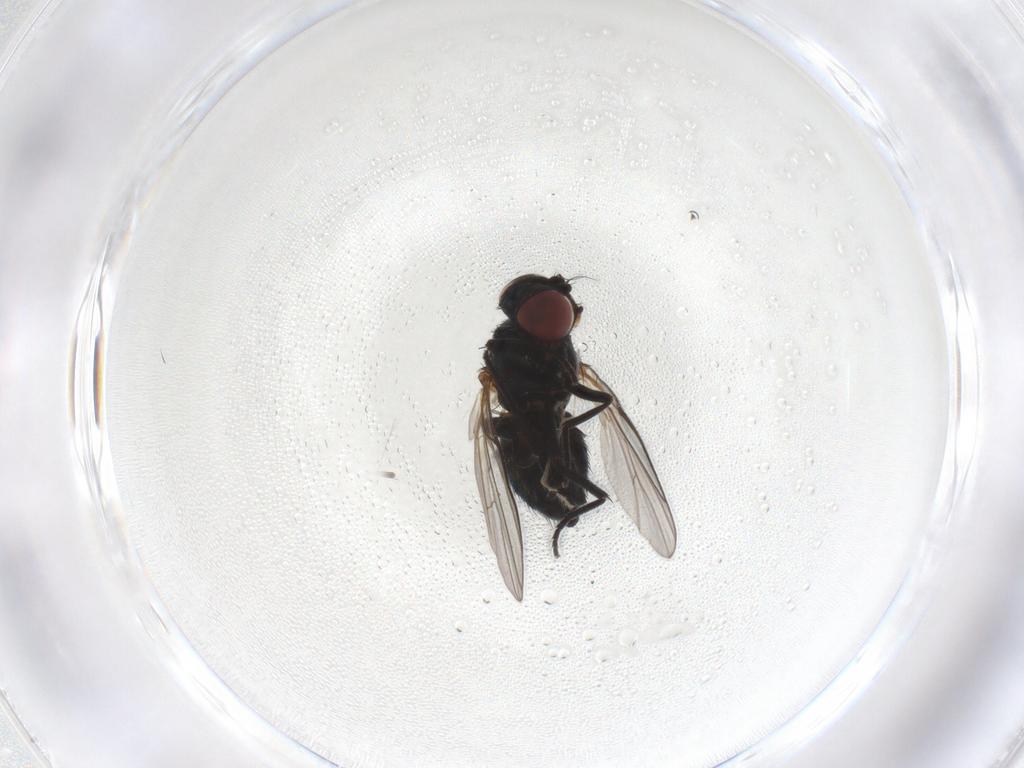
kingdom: Animalia
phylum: Arthropoda
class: Insecta
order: Diptera
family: Agromyzidae
